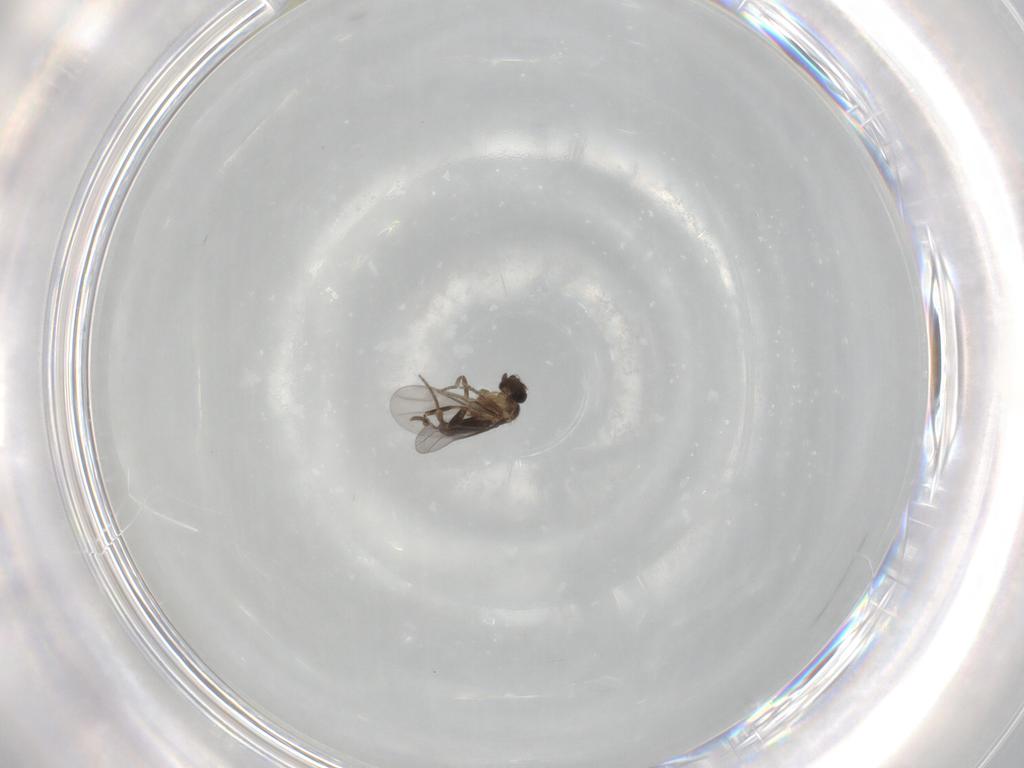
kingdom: Animalia
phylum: Arthropoda
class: Insecta
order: Diptera
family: Phoridae
